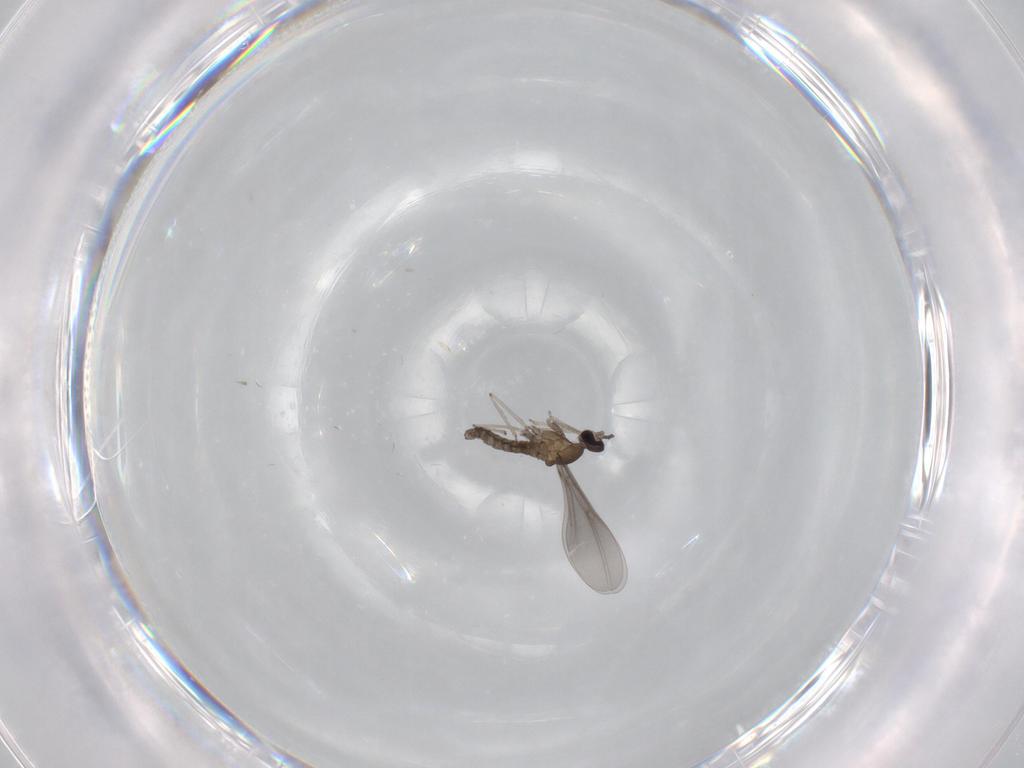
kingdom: Animalia
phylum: Arthropoda
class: Insecta
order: Diptera
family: Cecidomyiidae
